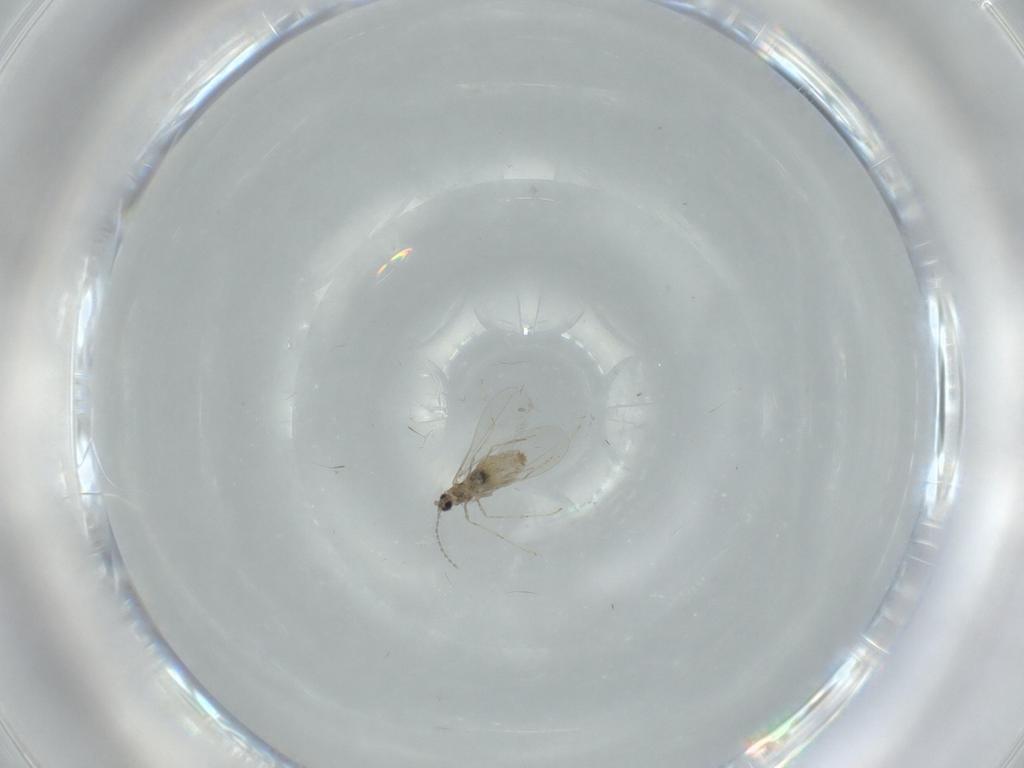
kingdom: Animalia
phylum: Arthropoda
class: Insecta
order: Diptera
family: Cecidomyiidae
